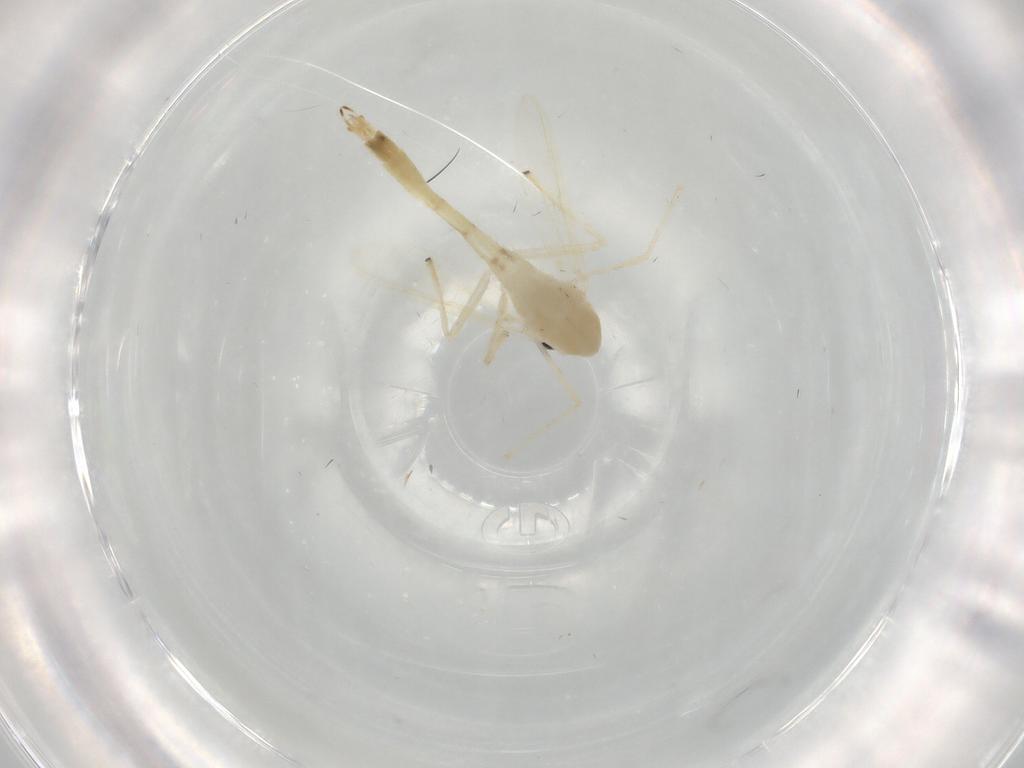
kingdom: Animalia
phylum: Arthropoda
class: Insecta
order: Diptera
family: Chironomidae
